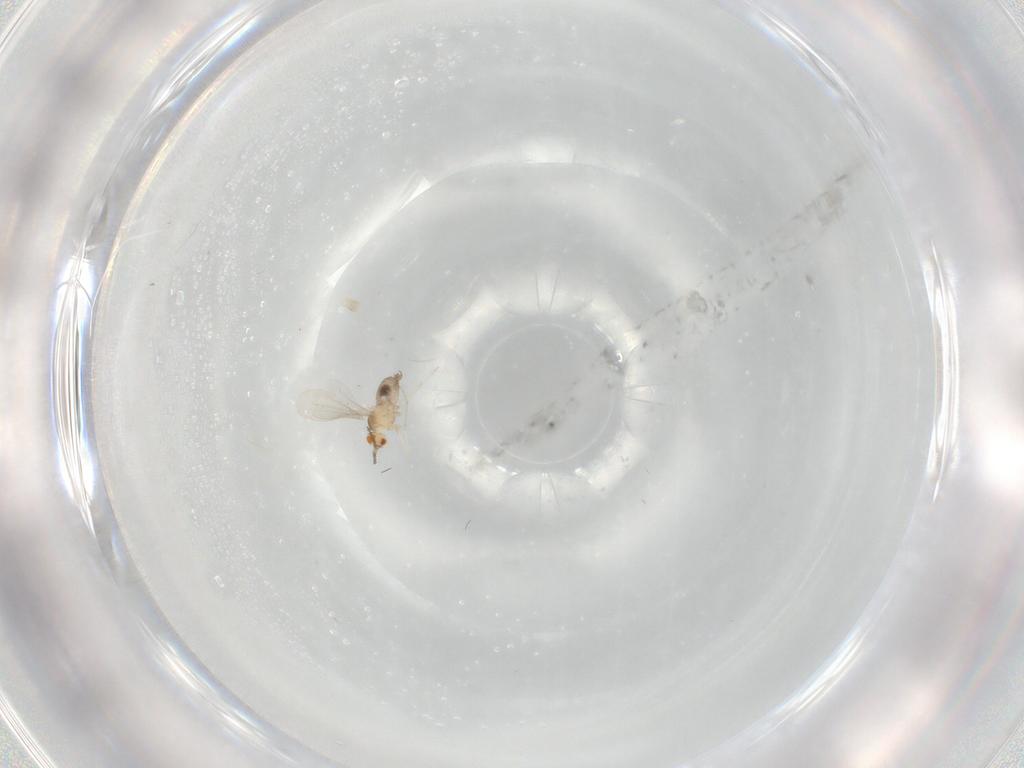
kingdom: Animalia
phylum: Arthropoda
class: Insecta
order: Diptera
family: Cecidomyiidae
